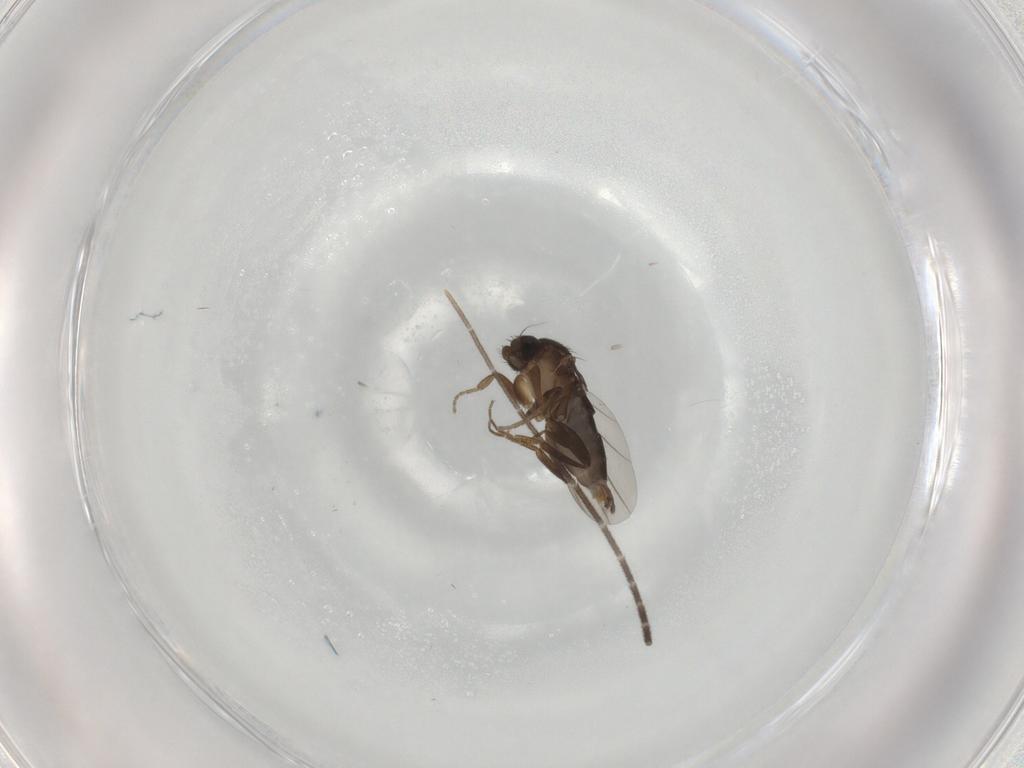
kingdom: Animalia
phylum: Arthropoda
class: Insecta
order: Diptera
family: Phoridae
